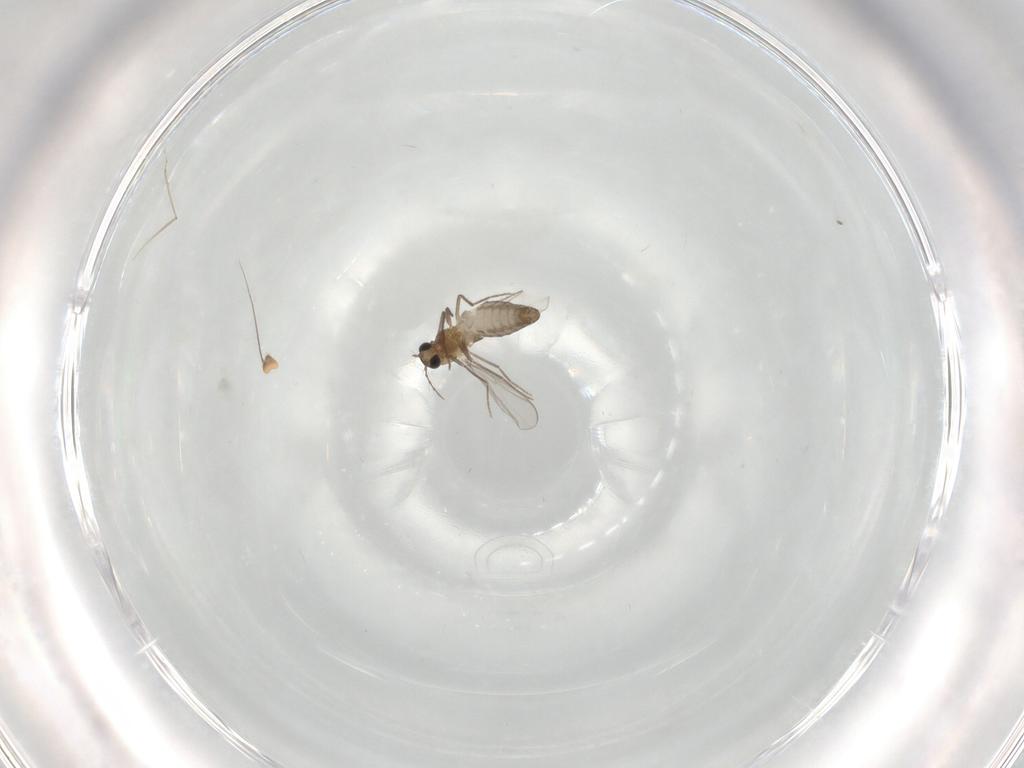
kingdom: Animalia
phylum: Arthropoda
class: Insecta
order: Diptera
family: Chironomidae
